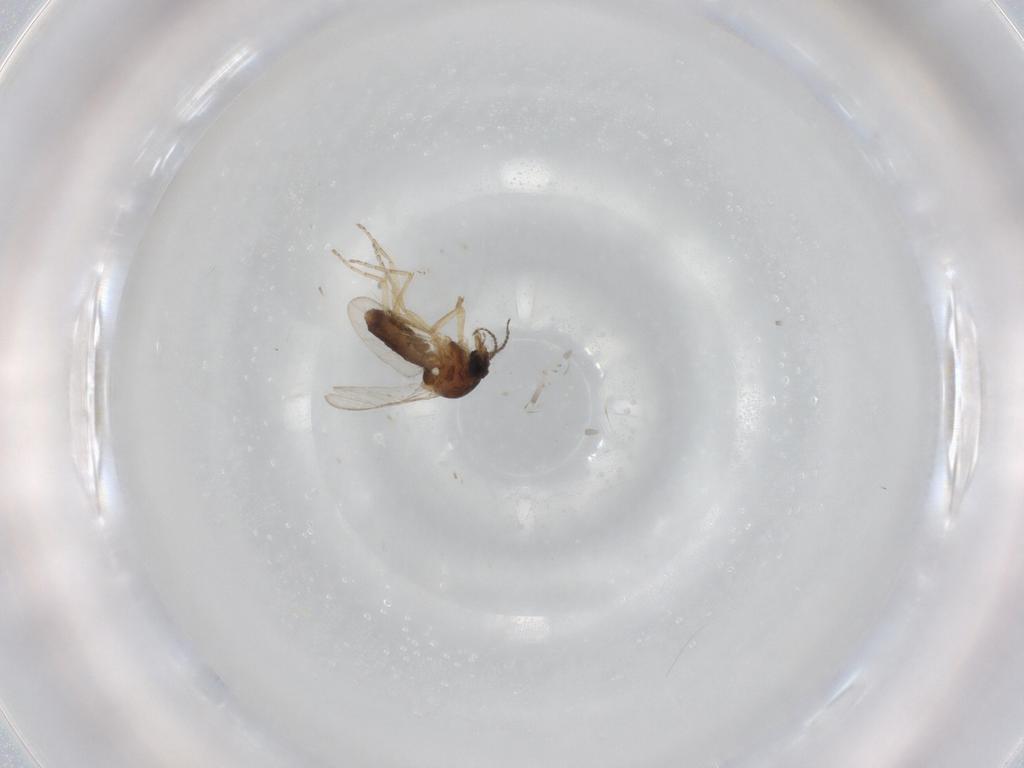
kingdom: Animalia
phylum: Arthropoda
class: Insecta
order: Diptera
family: Ceratopogonidae
